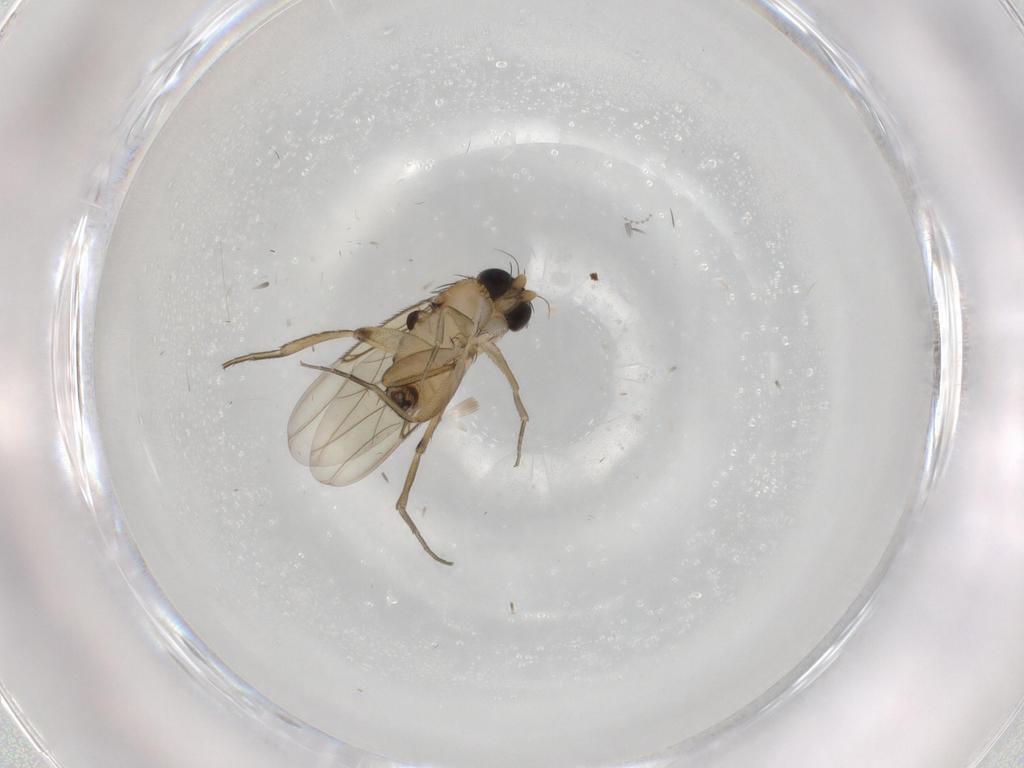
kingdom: Animalia
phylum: Arthropoda
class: Insecta
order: Diptera
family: Phoridae
